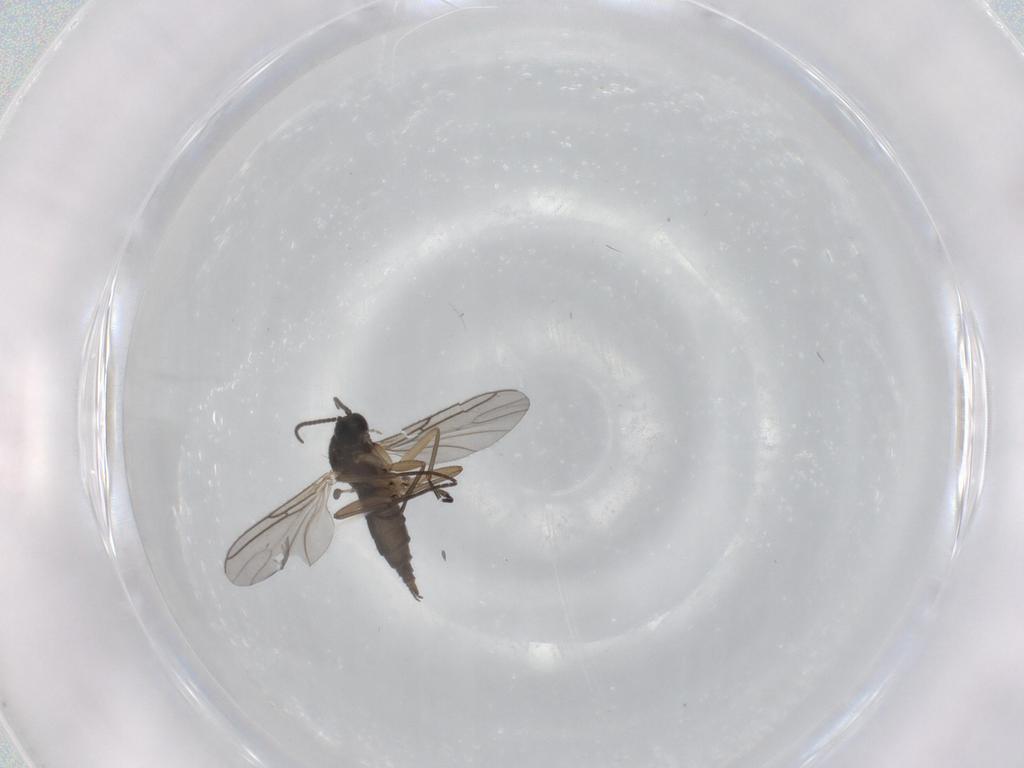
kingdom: Animalia
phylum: Arthropoda
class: Insecta
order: Diptera
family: Sciaridae
